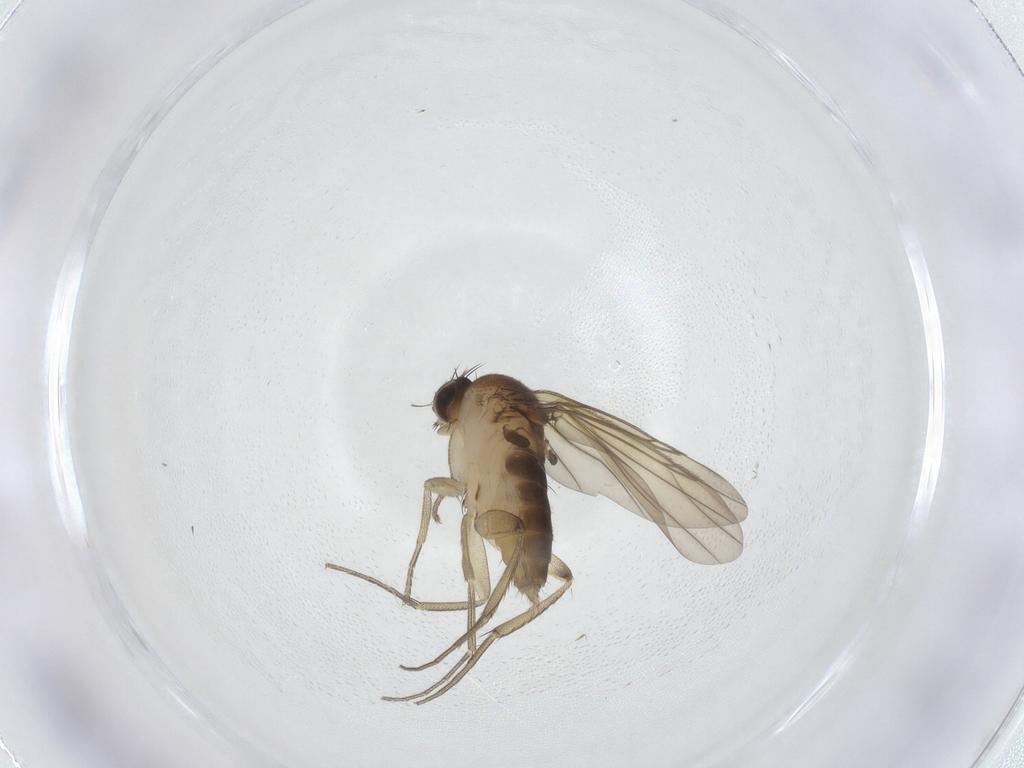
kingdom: Animalia
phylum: Arthropoda
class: Insecta
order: Diptera
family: Phoridae
